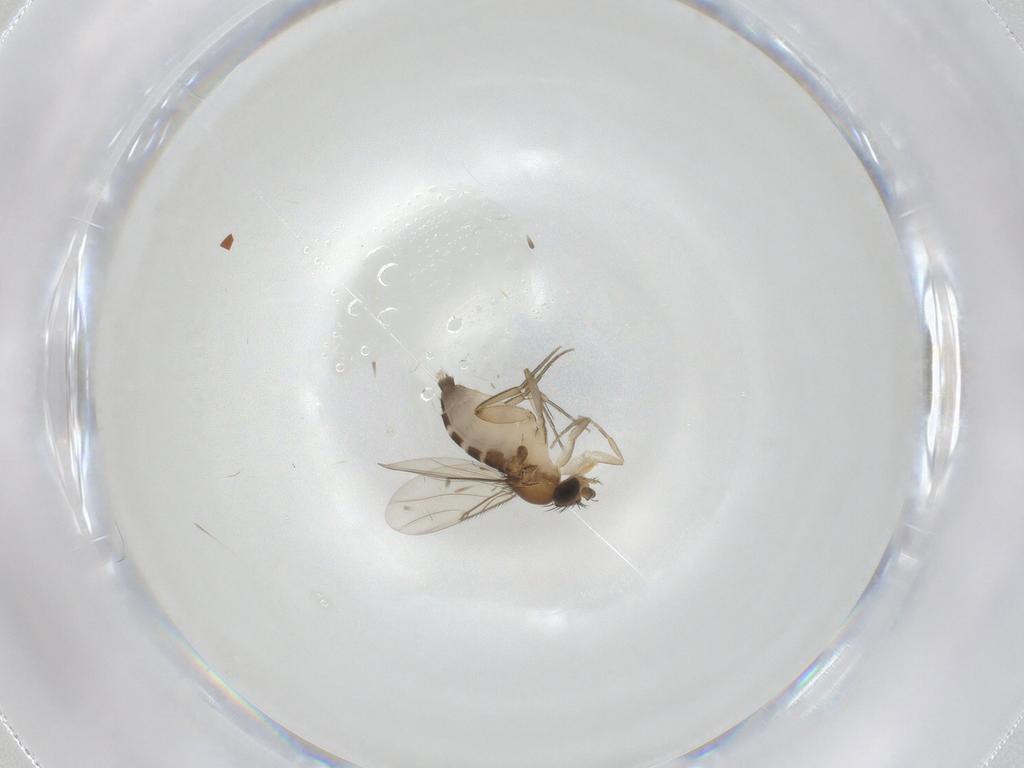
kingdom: Animalia
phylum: Arthropoda
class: Insecta
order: Diptera
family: Phoridae
